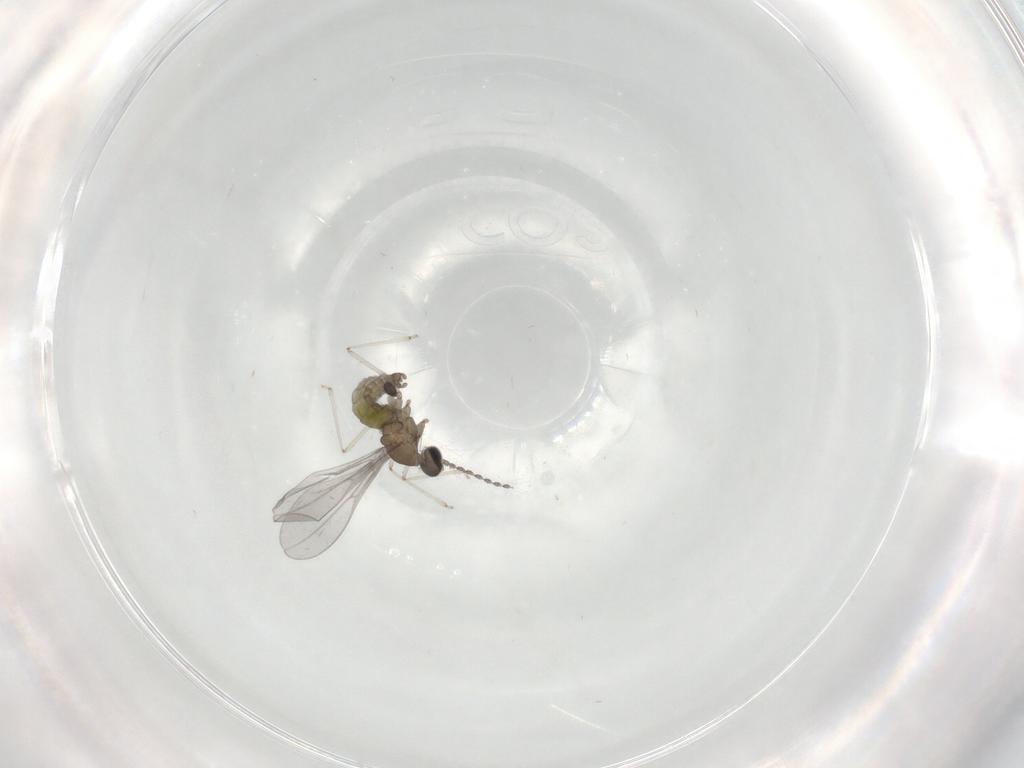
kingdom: Animalia
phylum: Arthropoda
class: Insecta
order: Diptera
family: Cecidomyiidae
